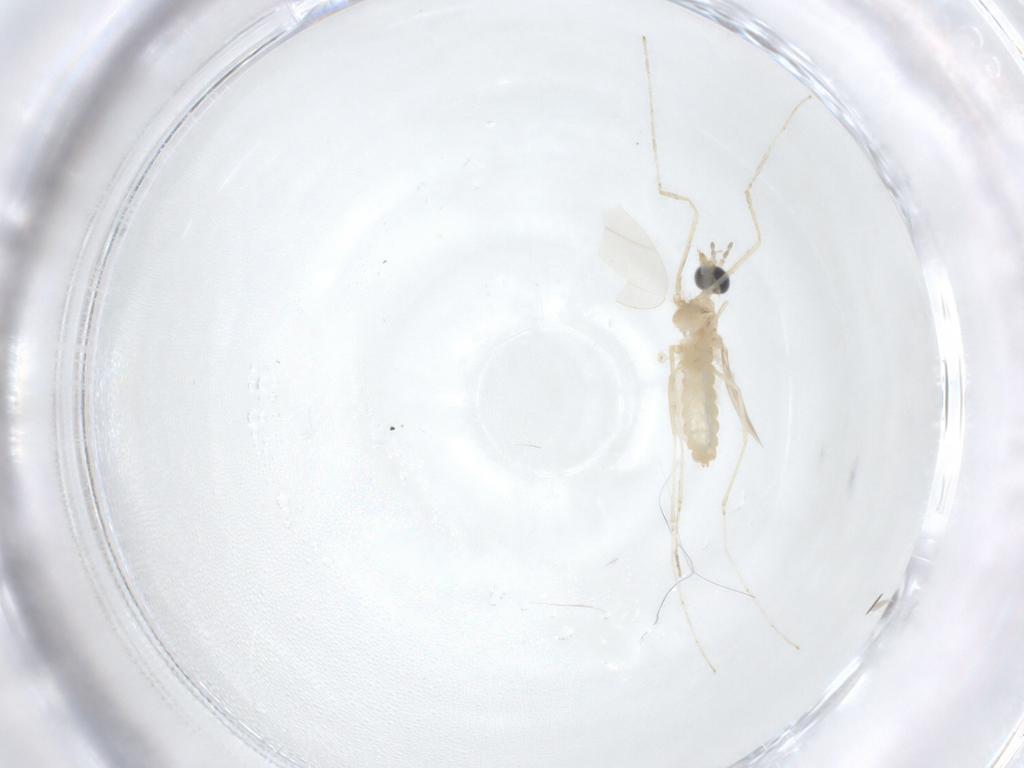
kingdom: Animalia
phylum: Arthropoda
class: Insecta
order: Diptera
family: Cecidomyiidae
